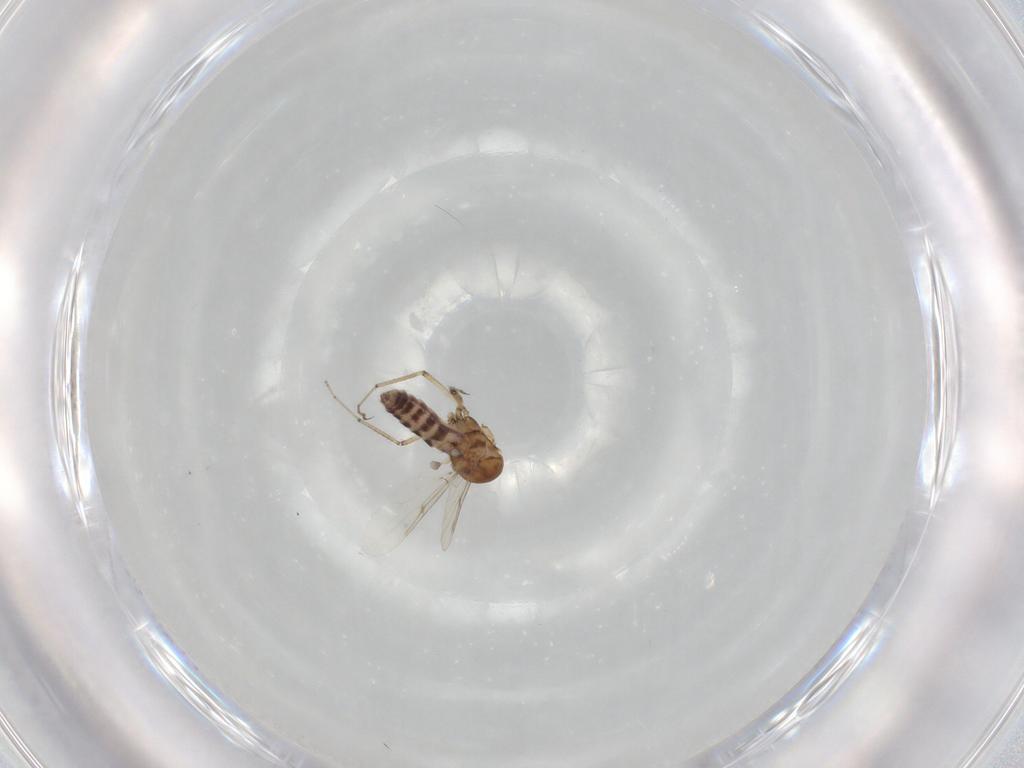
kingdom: Animalia
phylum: Arthropoda
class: Insecta
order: Diptera
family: Ceratopogonidae
